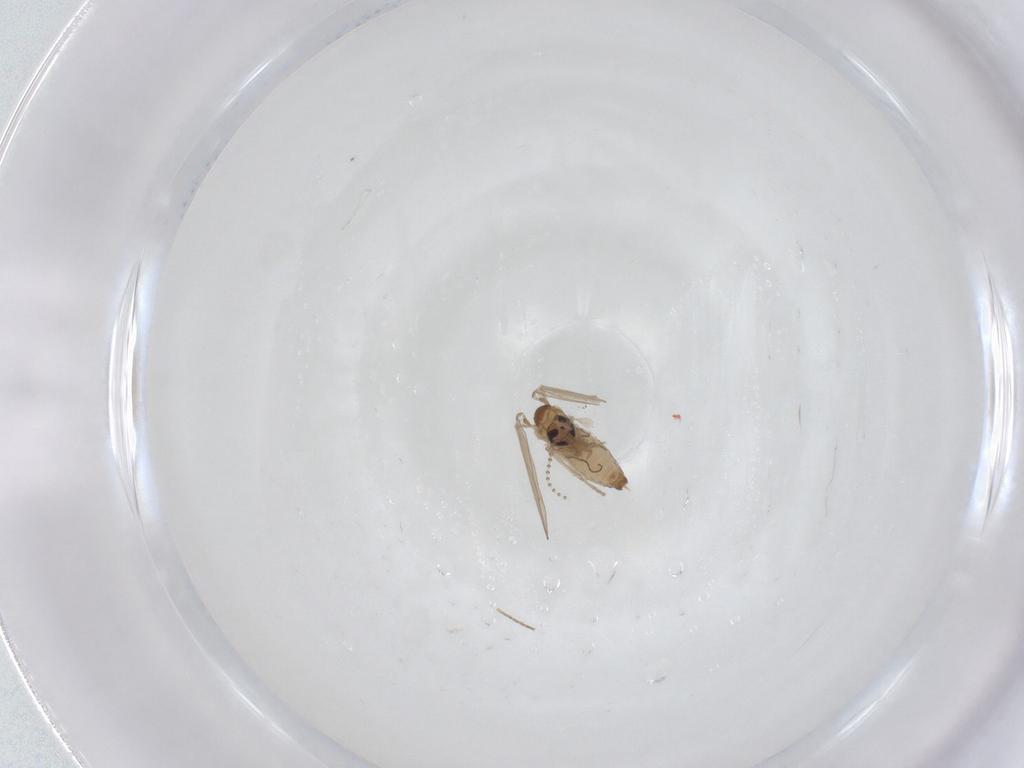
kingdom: Animalia
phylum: Arthropoda
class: Insecta
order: Diptera
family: Psychodidae
